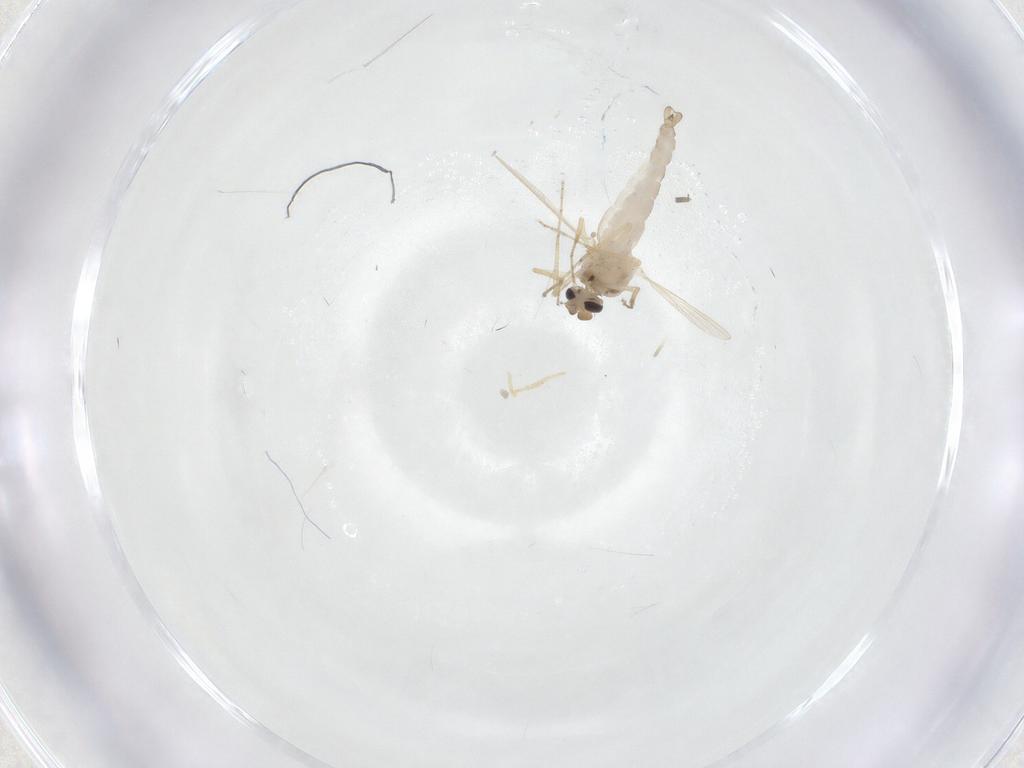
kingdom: Animalia
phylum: Arthropoda
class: Insecta
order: Diptera
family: Ceratopogonidae
